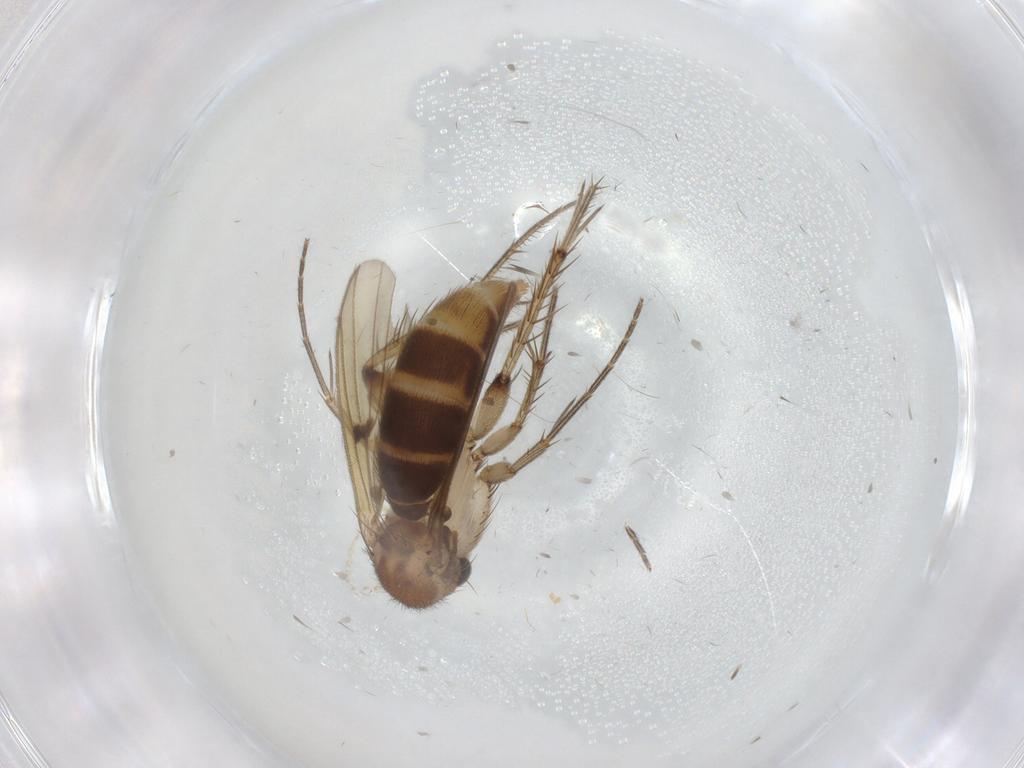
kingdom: Animalia
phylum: Arthropoda
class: Insecta
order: Diptera
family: Mycetophilidae
